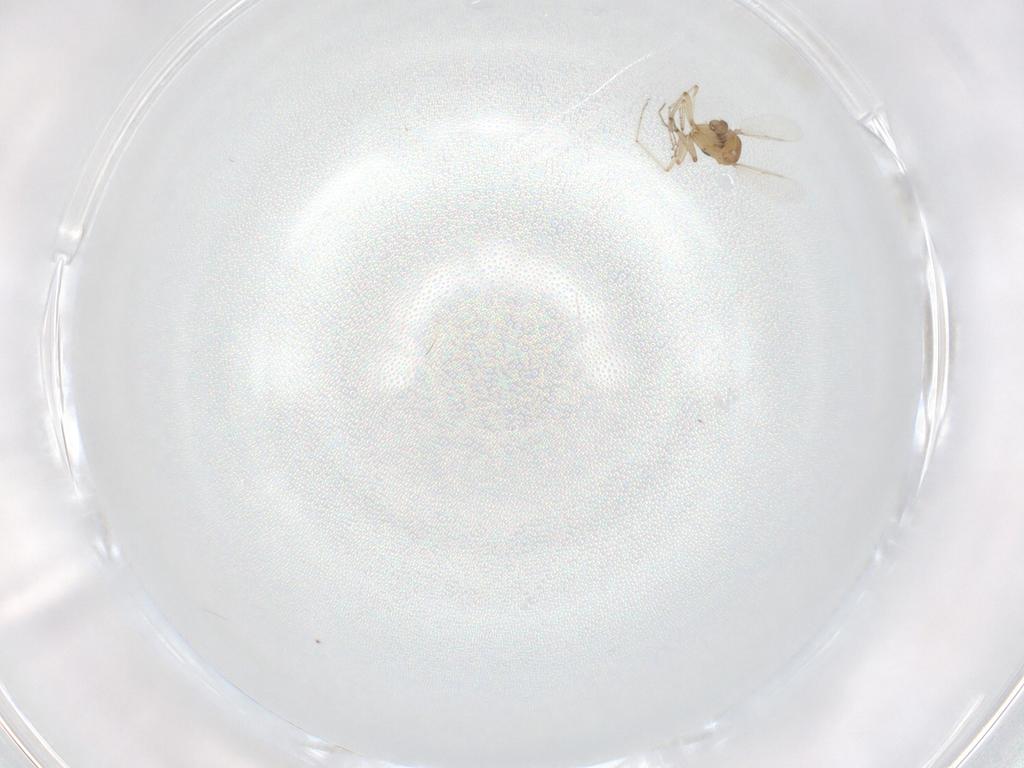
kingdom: Animalia
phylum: Arthropoda
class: Insecta
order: Diptera
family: Ceratopogonidae
